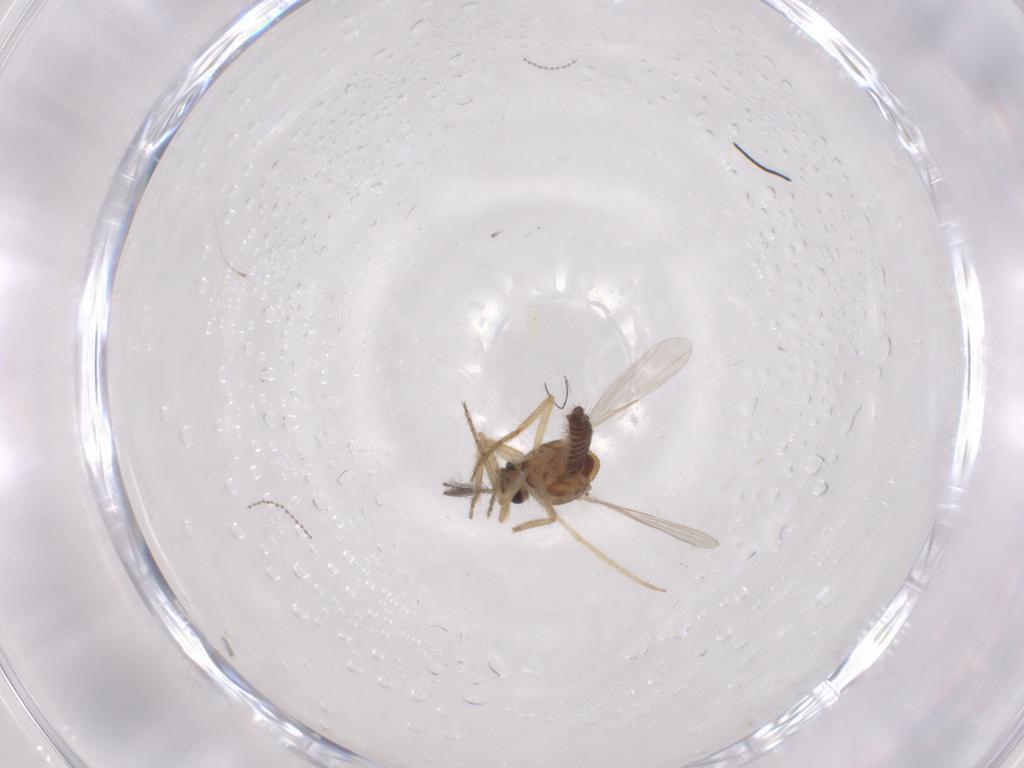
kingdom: Animalia
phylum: Arthropoda
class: Insecta
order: Diptera
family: Ceratopogonidae
